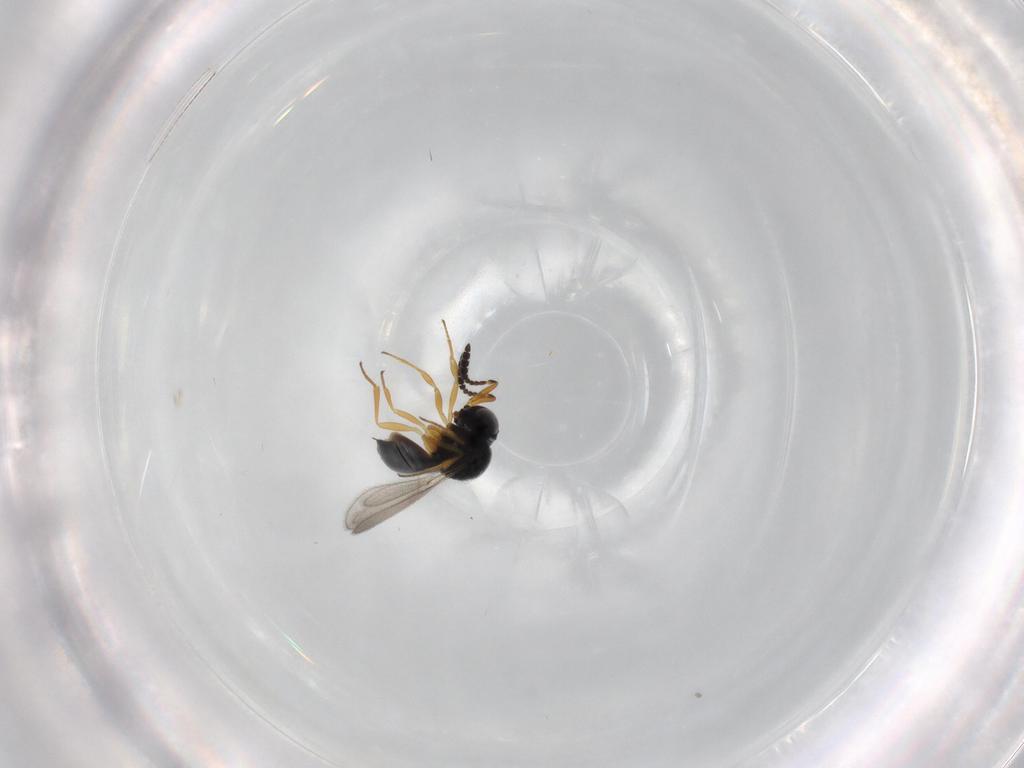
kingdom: Animalia
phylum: Arthropoda
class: Insecta
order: Hymenoptera
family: Scelionidae
